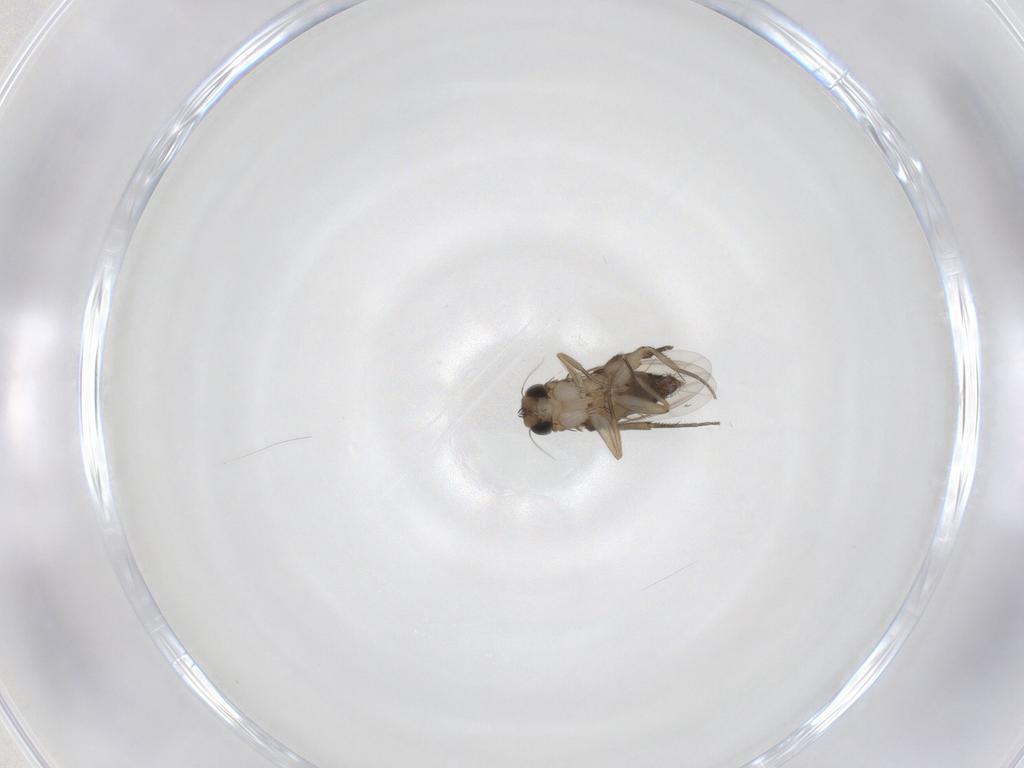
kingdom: Animalia
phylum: Arthropoda
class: Insecta
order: Diptera
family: Phoridae
